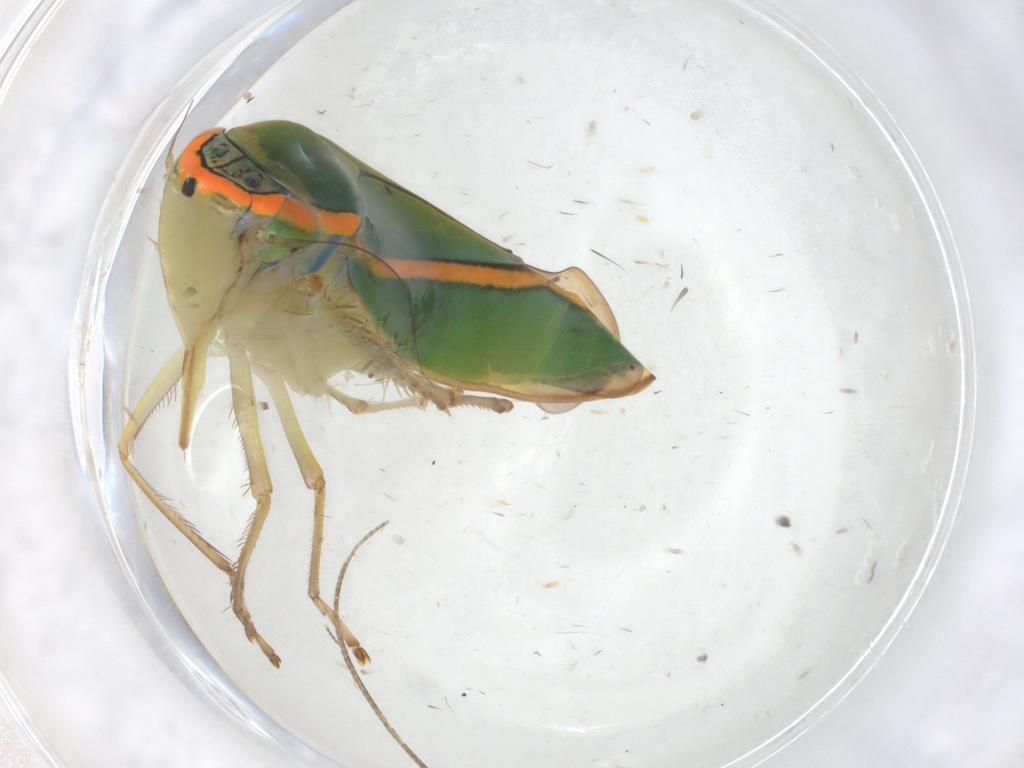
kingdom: Animalia
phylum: Arthropoda
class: Insecta
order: Hemiptera
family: Cicadellidae
